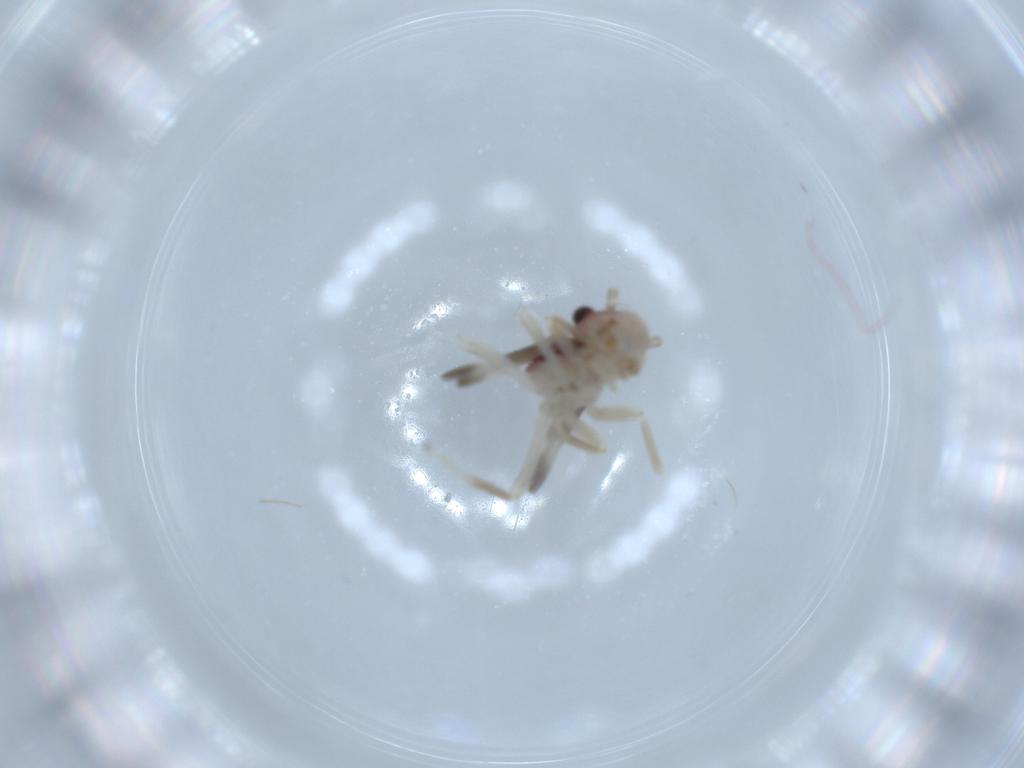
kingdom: Animalia
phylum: Arthropoda
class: Insecta
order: Psocodea
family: Amphipsocidae
